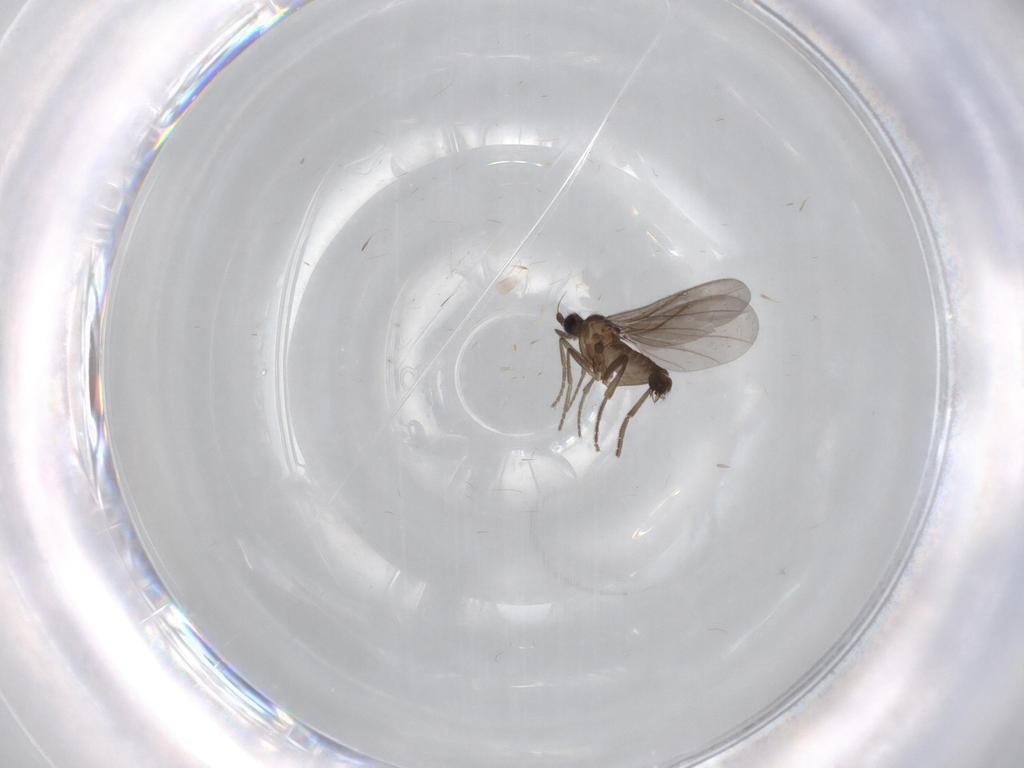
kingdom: Animalia
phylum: Arthropoda
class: Insecta
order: Diptera
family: Phoridae
